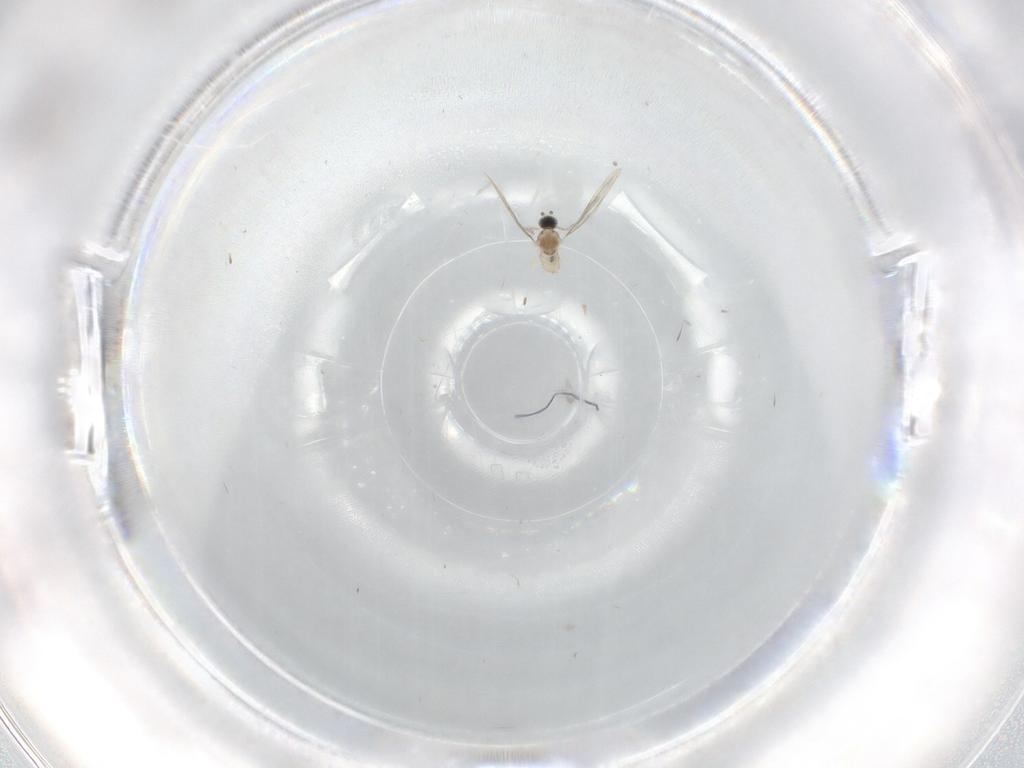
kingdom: Animalia
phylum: Arthropoda
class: Insecta
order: Diptera
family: Cecidomyiidae
